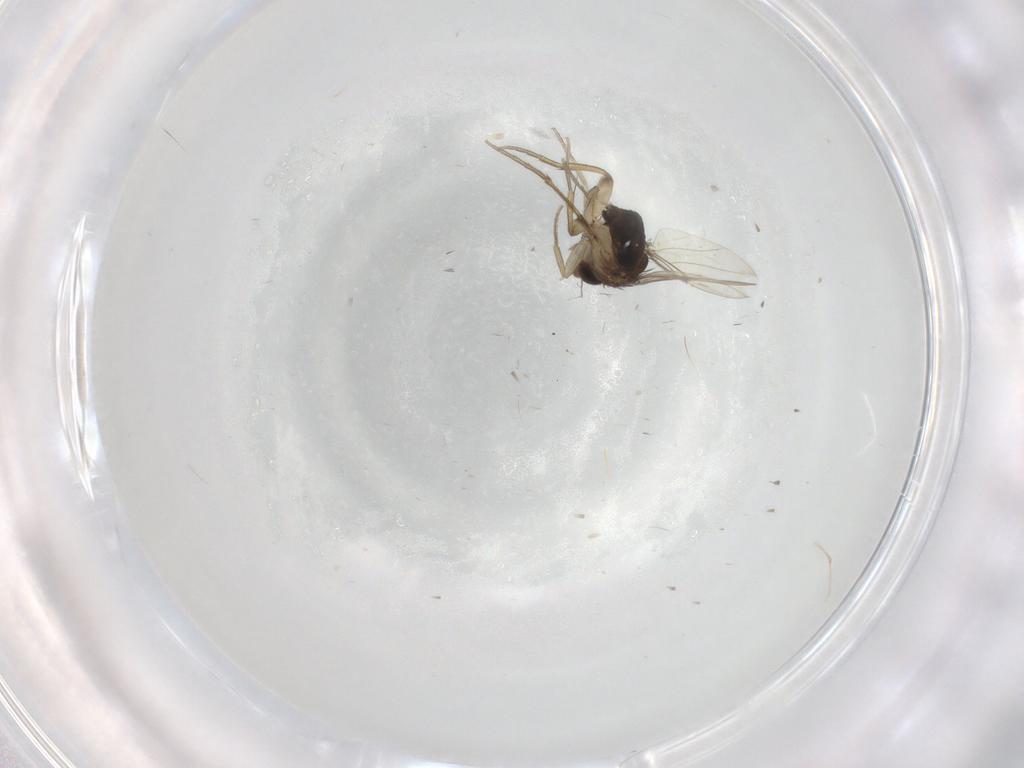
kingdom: Animalia
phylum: Arthropoda
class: Insecta
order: Diptera
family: Phoridae
